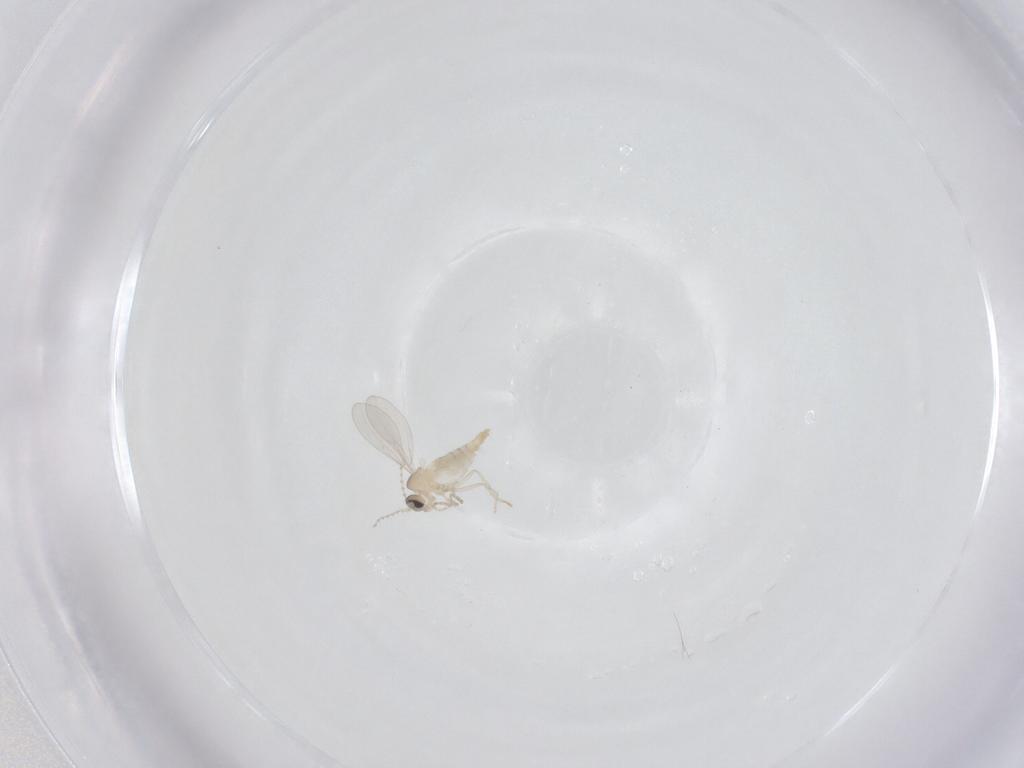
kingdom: Animalia
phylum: Arthropoda
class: Insecta
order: Diptera
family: Cecidomyiidae
